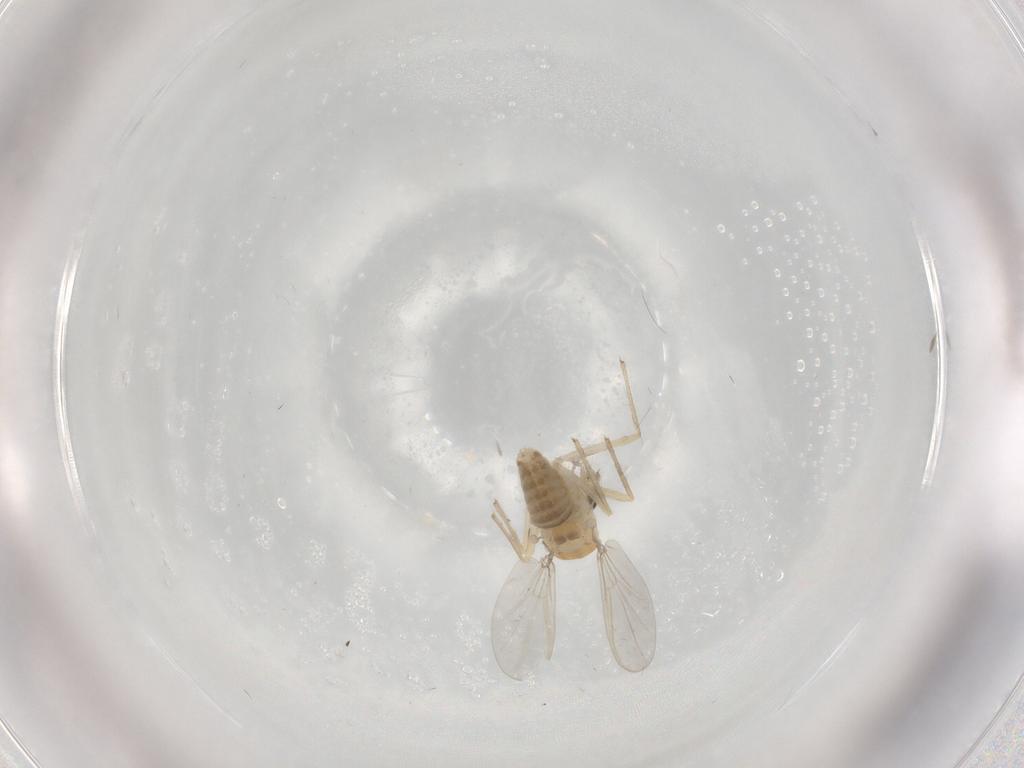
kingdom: Animalia
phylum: Arthropoda
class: Insecta
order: Diptera
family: Chironomidae
